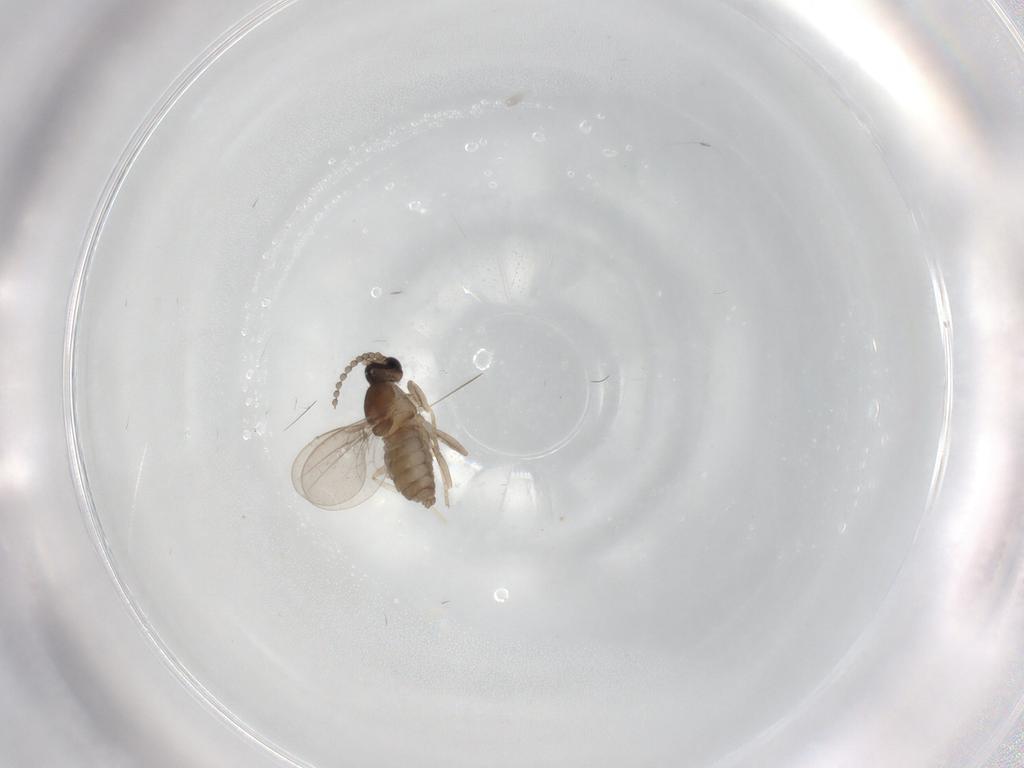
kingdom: Animalia
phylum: Arthropoda
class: Insecta
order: Diptera
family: Cecidomyiidae
